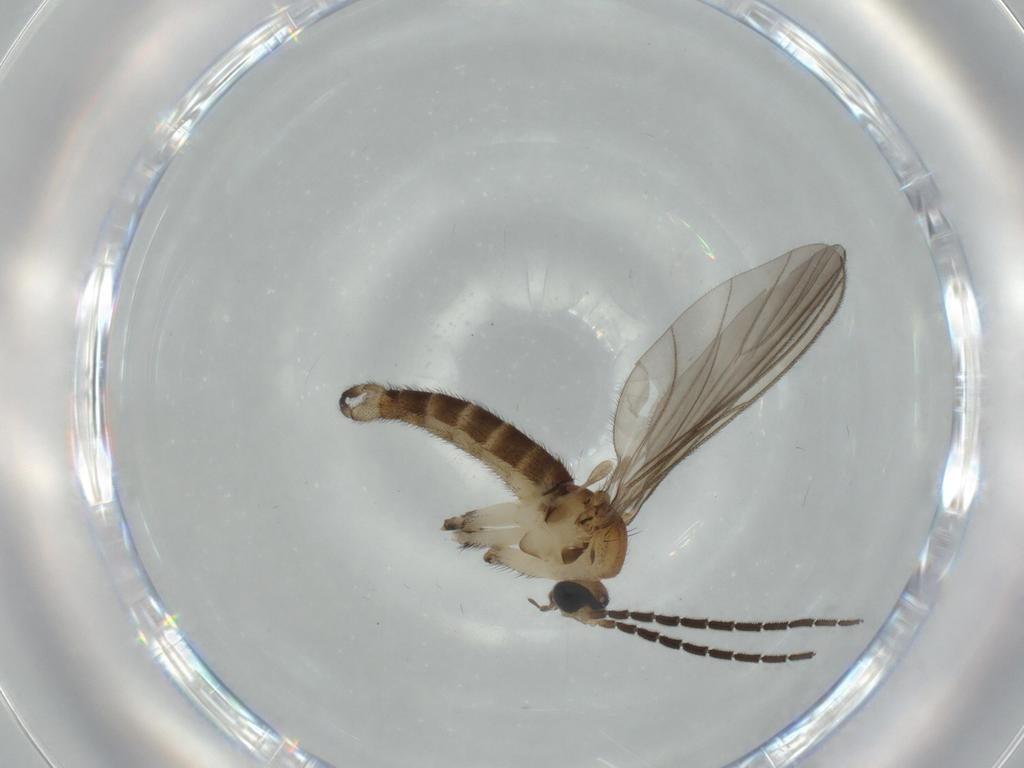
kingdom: Animalia
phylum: Arthropoda
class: Insecta
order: Diptera
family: Sciaridae
